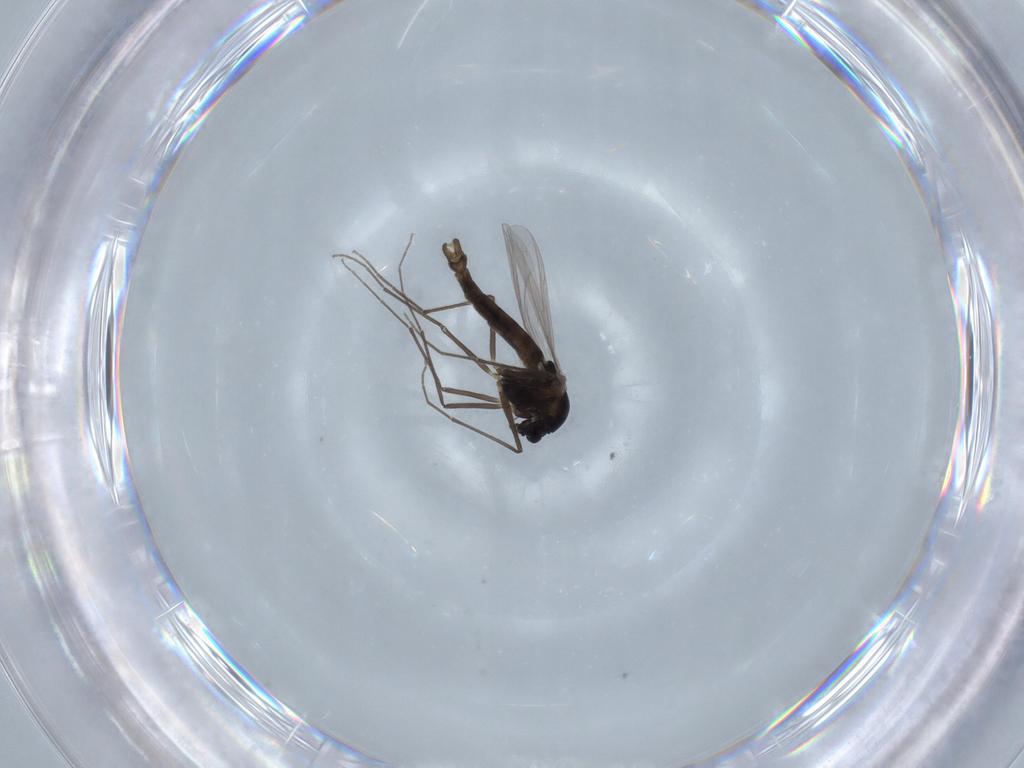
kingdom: Animalia
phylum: Arthropoda
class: Insecta
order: Diptera
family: Chironomidae
